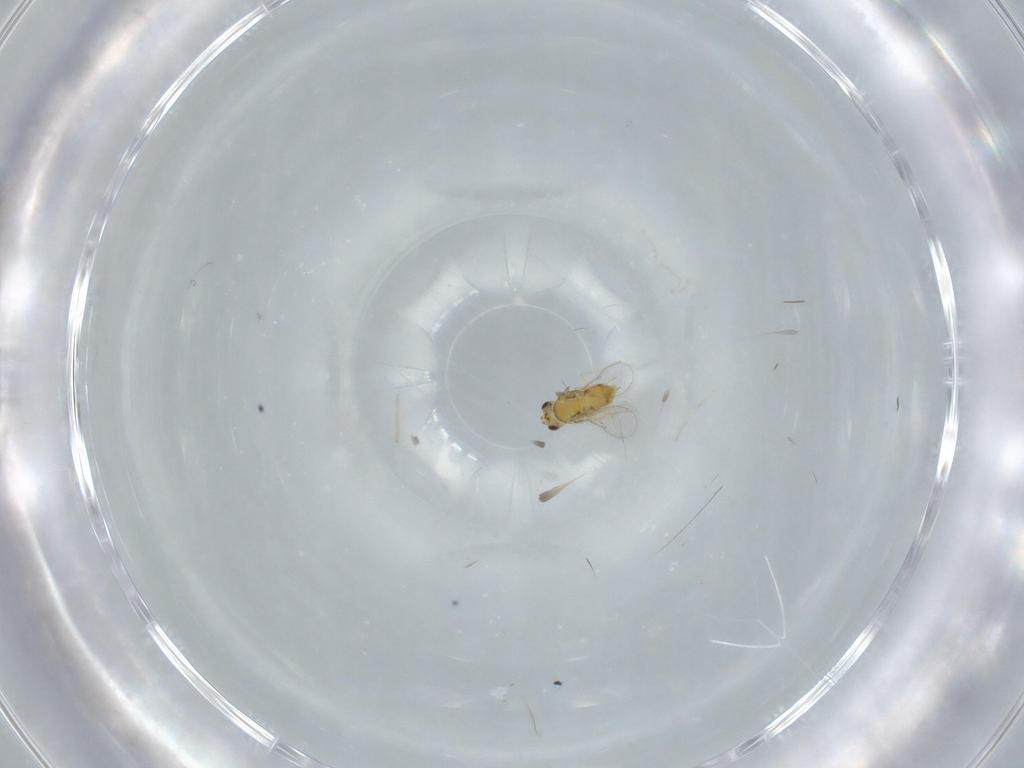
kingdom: Animalia
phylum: Arthropoda
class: Insecta
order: Hymenoptera
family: Aphelinidae
